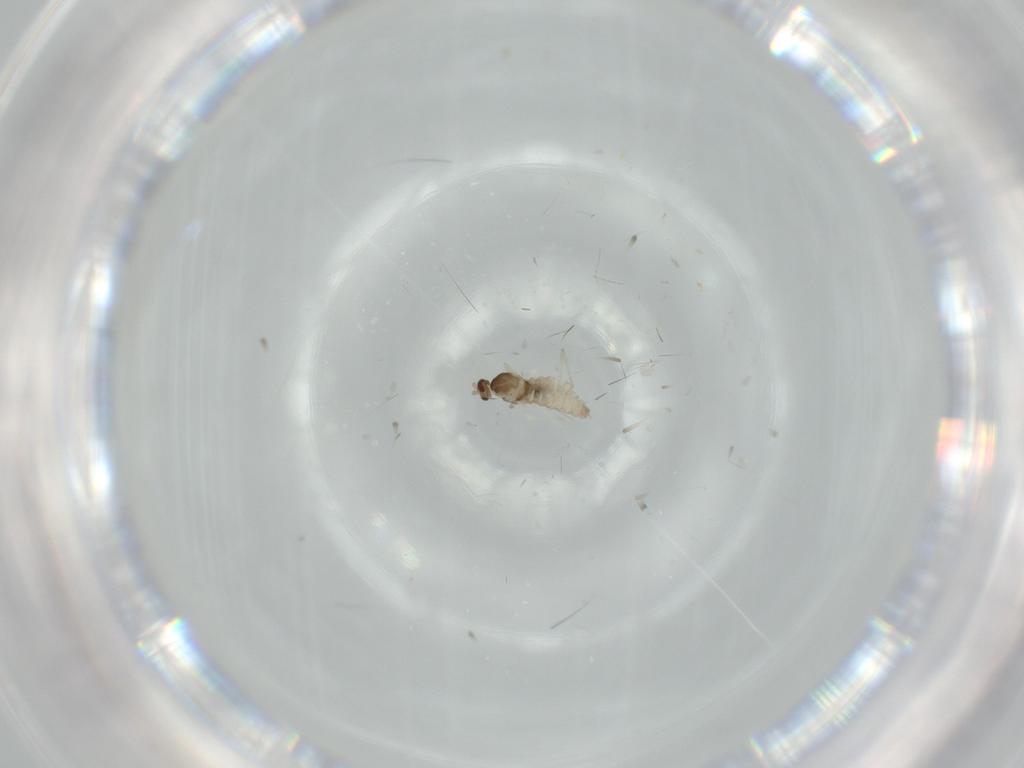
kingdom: Animalia
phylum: Arthropoda
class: Insecta
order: Diptera
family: Cecidomyiidae
